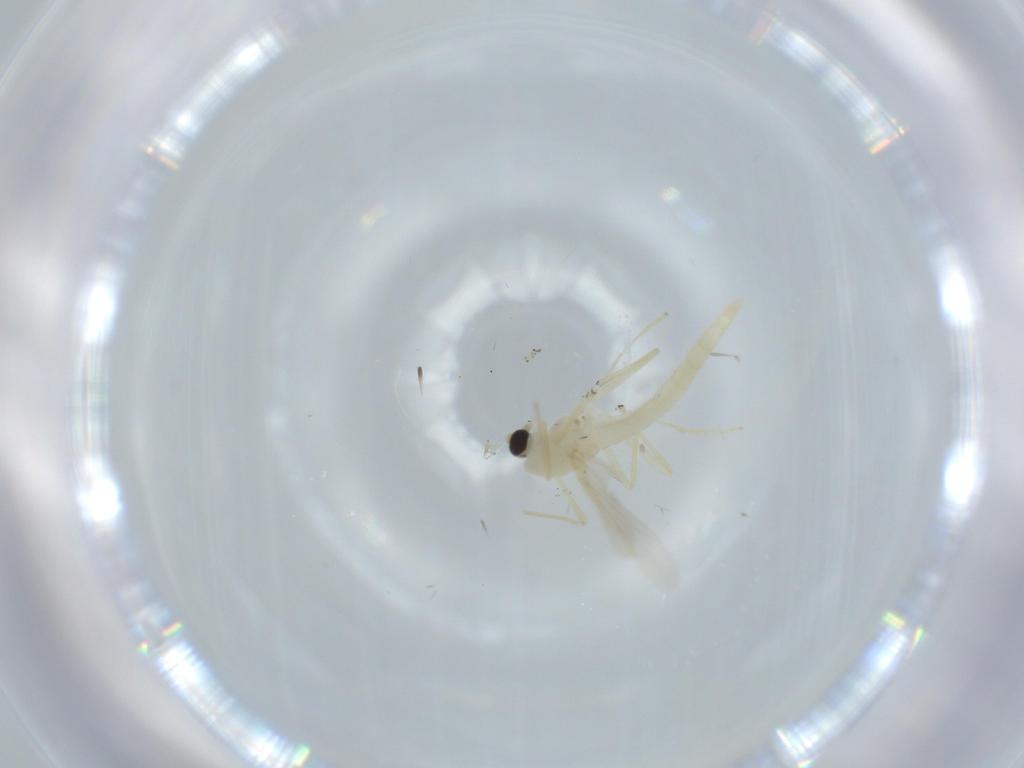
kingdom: Animalia
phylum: Arthropoda
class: Insecta
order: Diptera
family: Chironomidae
